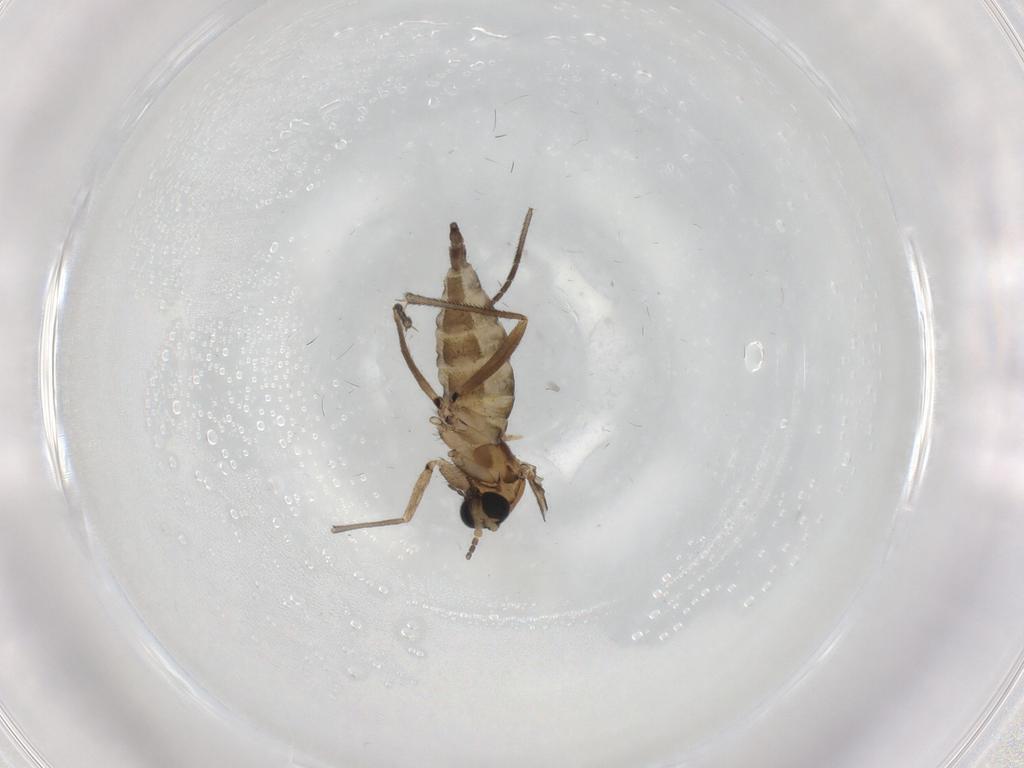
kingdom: Animalia
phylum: Arthropoda
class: Insecta
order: Diptera
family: Sciaridae
